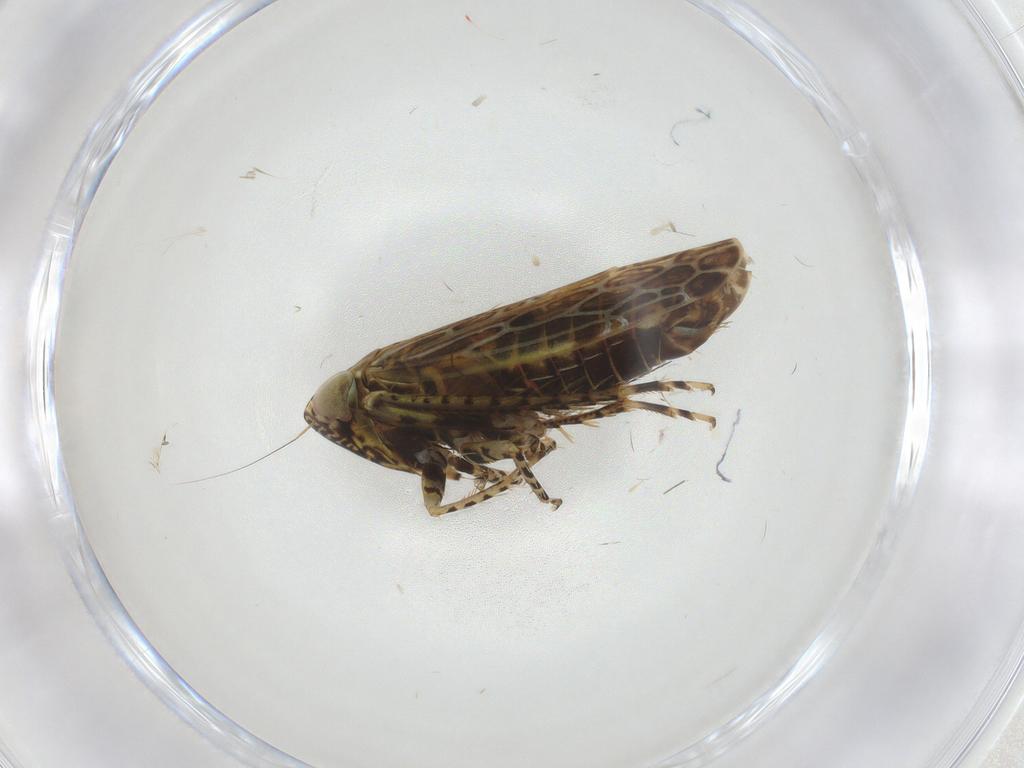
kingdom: Animalia
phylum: Arthropoda
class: Insecta
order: Hemiptera
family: Cicadellidae
